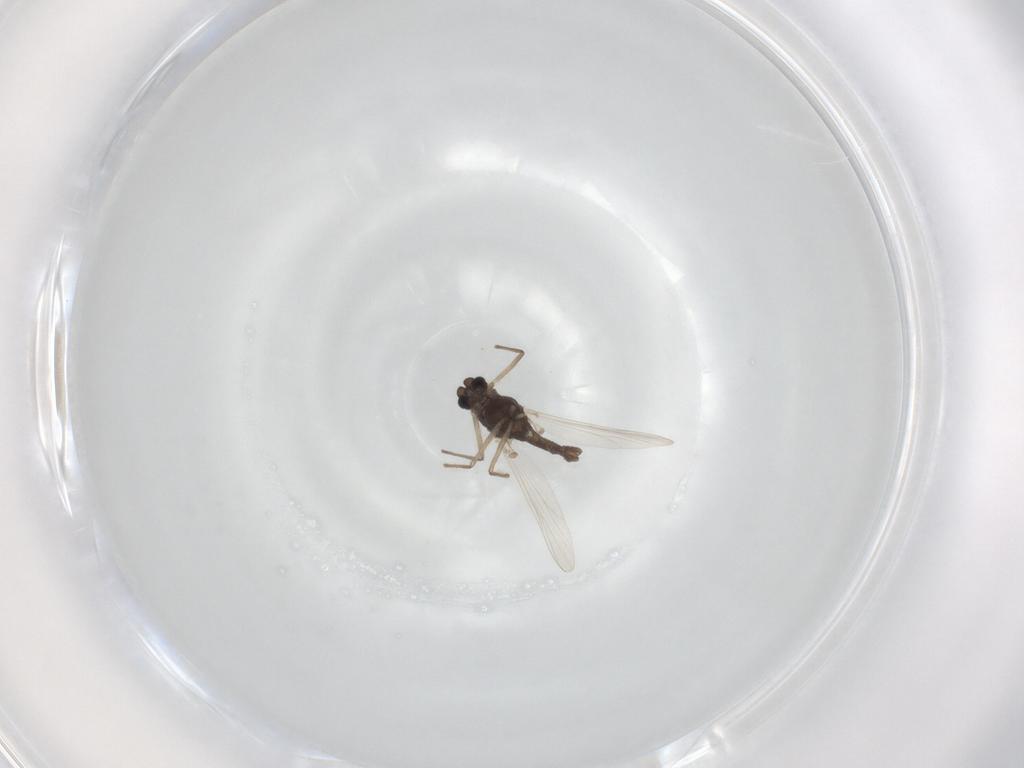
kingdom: Animalia
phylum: Arthropoda
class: Insecta
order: Diptera
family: Chironomidae
